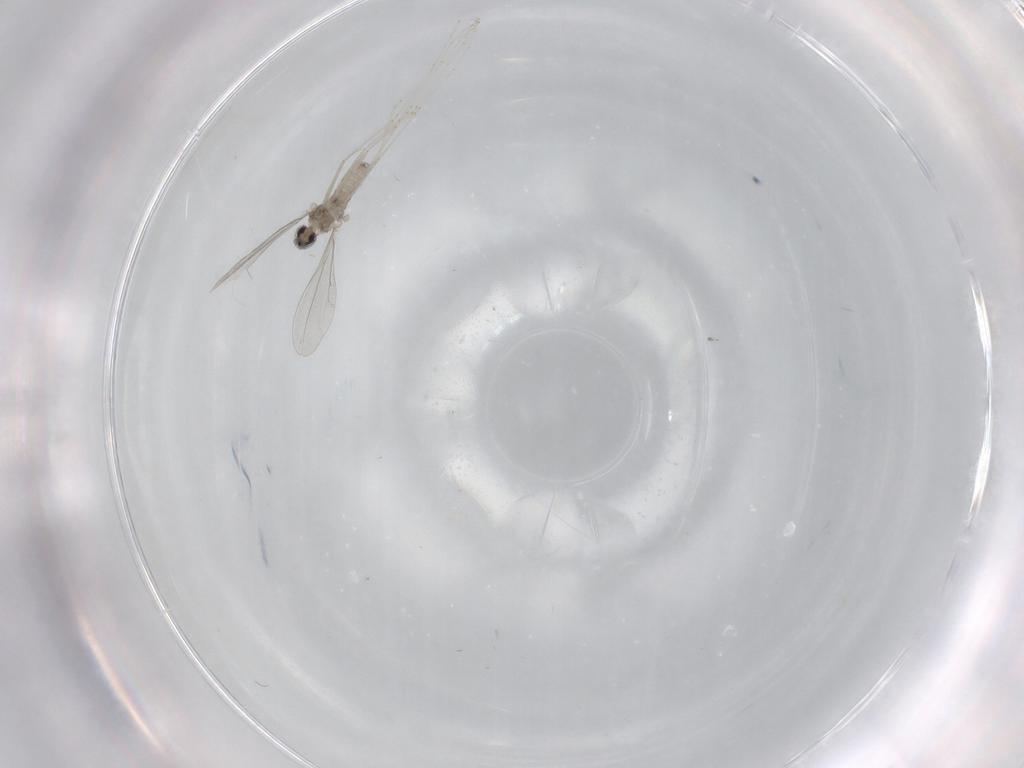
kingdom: Animalia
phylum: Arthropoda
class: Insecta
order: Diptera
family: Cecidomyiidae
